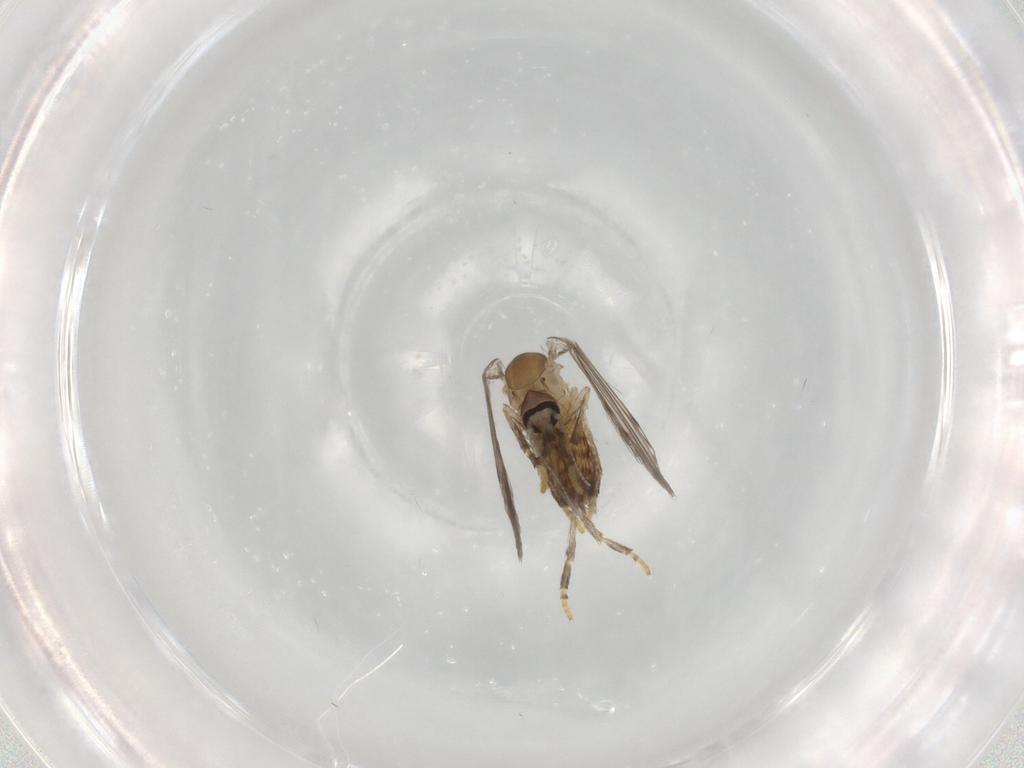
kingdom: Animalia
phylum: Arthropoda
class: Insecta
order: Diptera
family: Psychodidae
